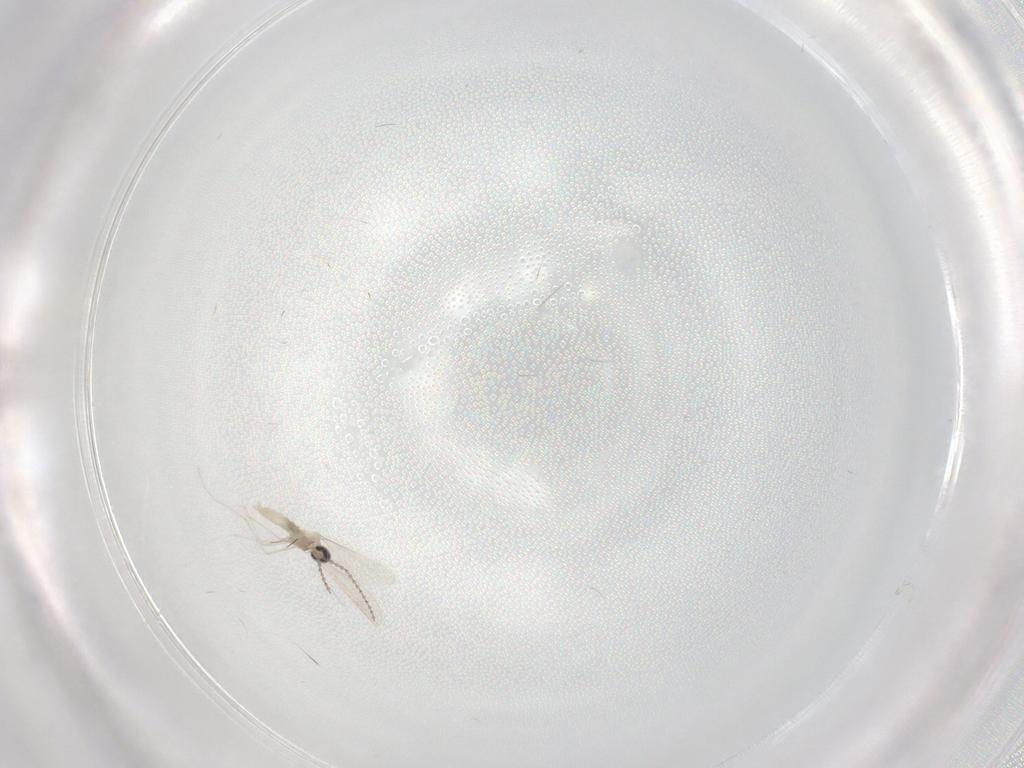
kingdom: Animalia
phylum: Arthropoda
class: Insecta
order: Diptera
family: Cecidomyiidae
